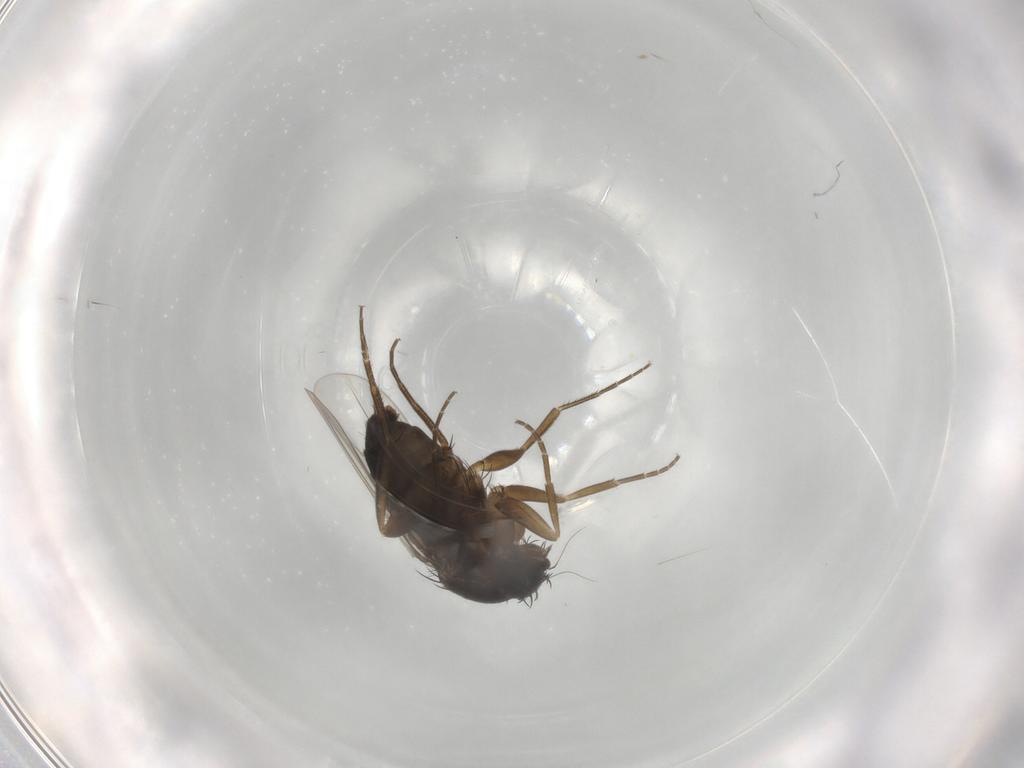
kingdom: Animalia
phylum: Arthropoda
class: Insecta
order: Diptera
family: Phoridae
